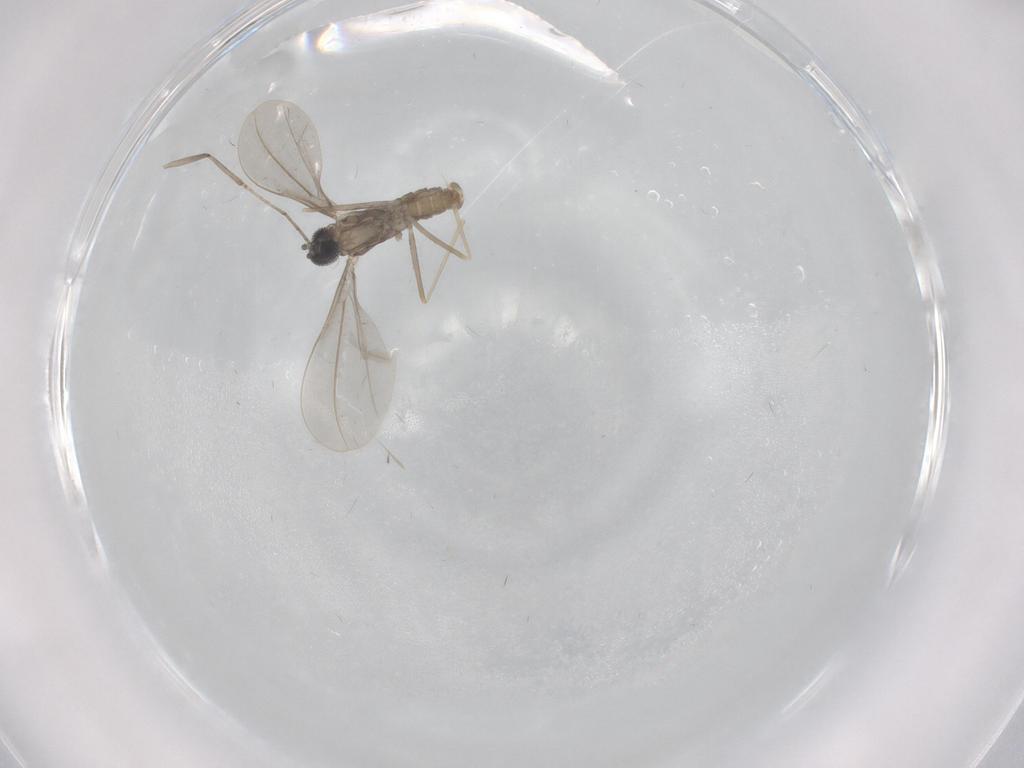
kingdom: Animalia
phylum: Arthropoda
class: Insecta
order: Diptera
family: Cecidomyiidae
